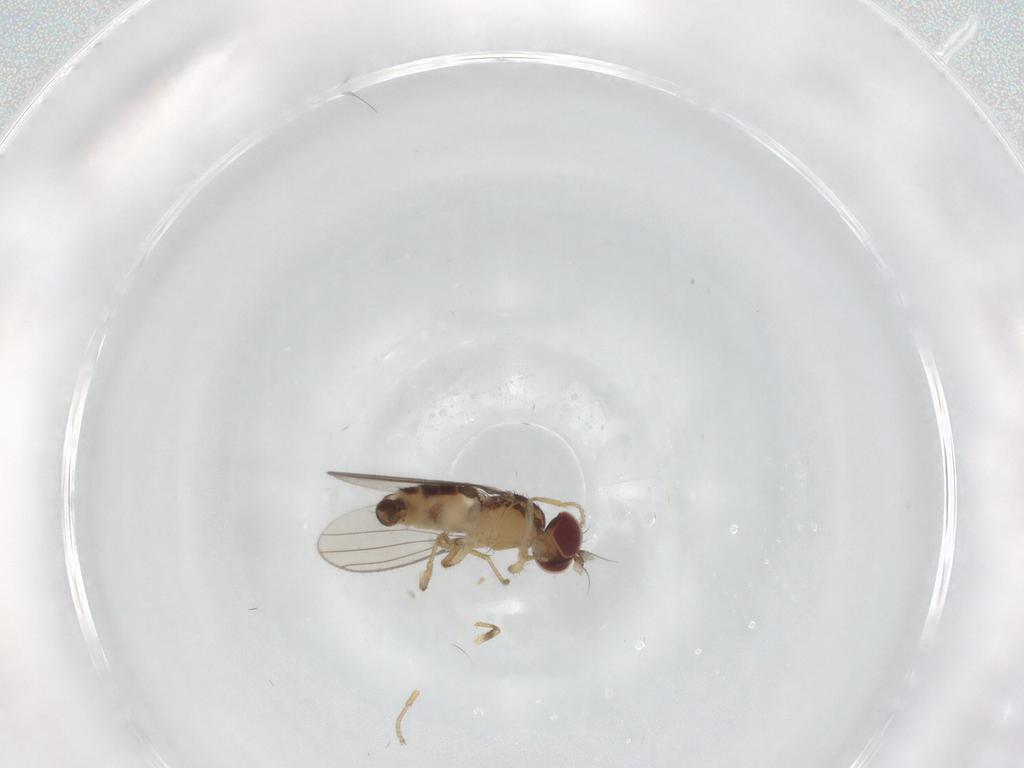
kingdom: Animalia
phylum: Arthropoda
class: Insecta
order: Diptera
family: Anthomyzidae
